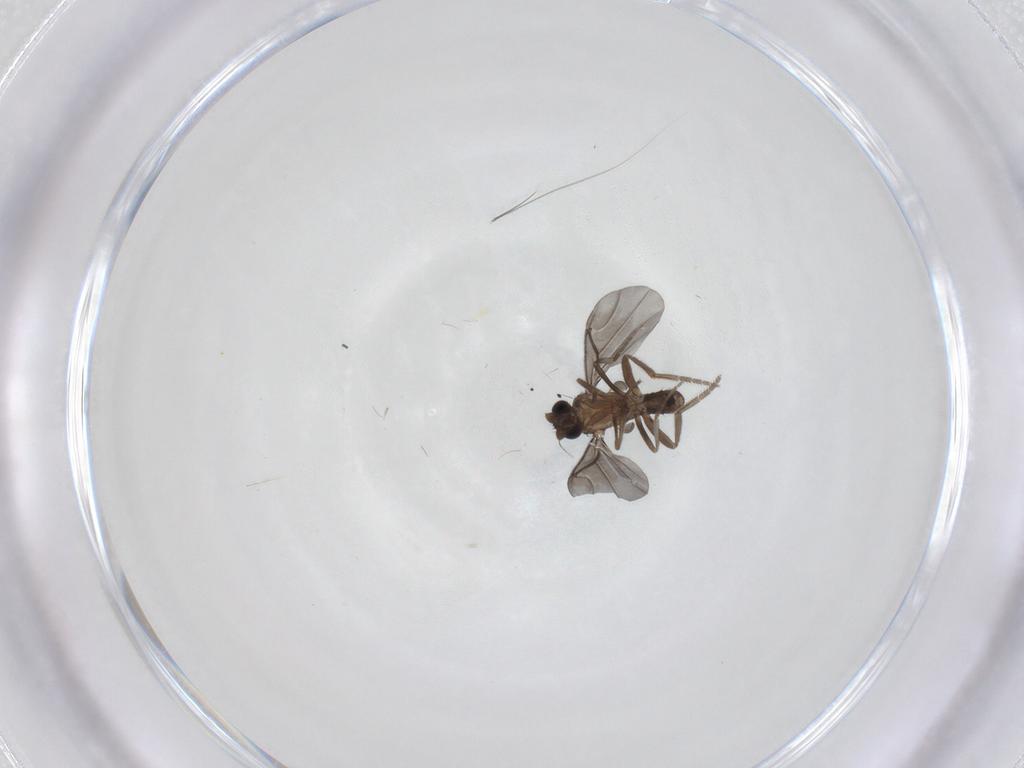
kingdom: Animalia
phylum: Arthropoda
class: Insecta
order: Diptera
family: Phoridae
